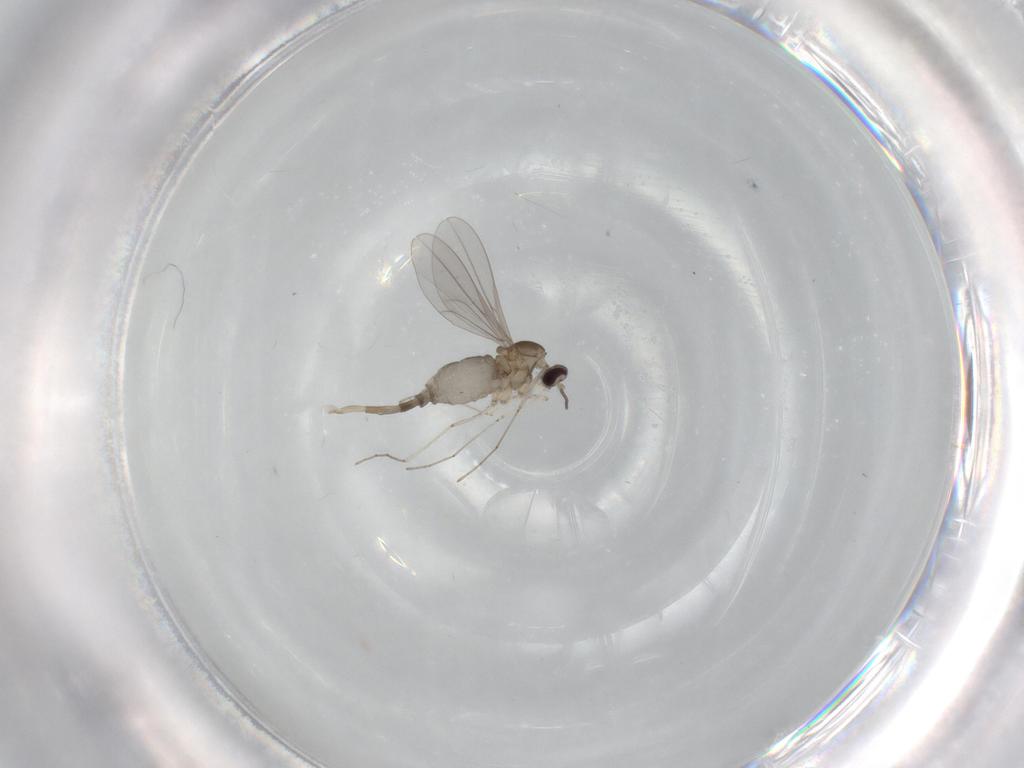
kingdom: Animalia
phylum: Arthropoda
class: Insecta
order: Diptera
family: Cecidomyiidae
